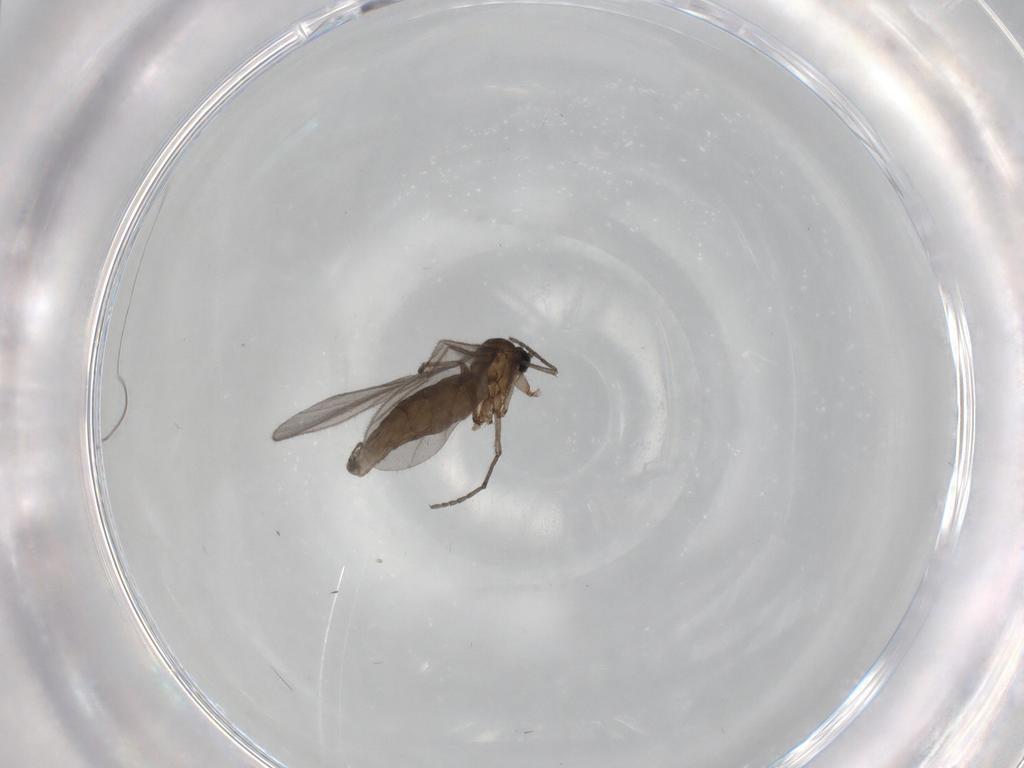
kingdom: Animalia
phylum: Arthropoda
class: Insecta
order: Diptera
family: Sciaridae
